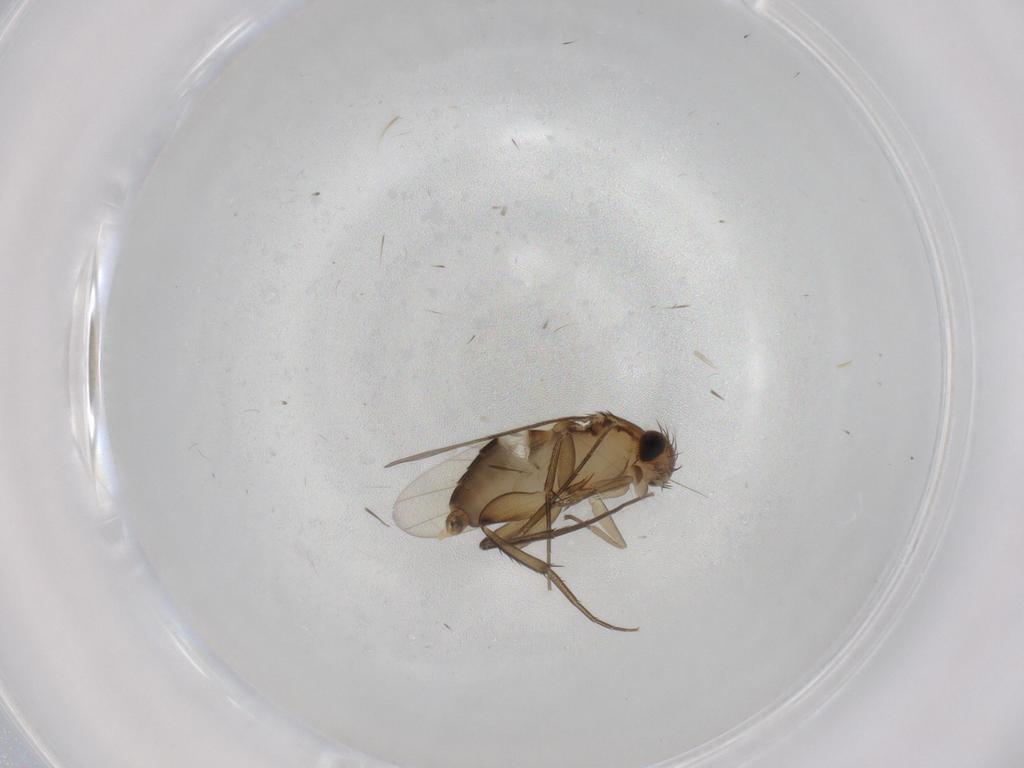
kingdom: Animalia
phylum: Arthropoda
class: Insecta
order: Diptera
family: Phoridae
